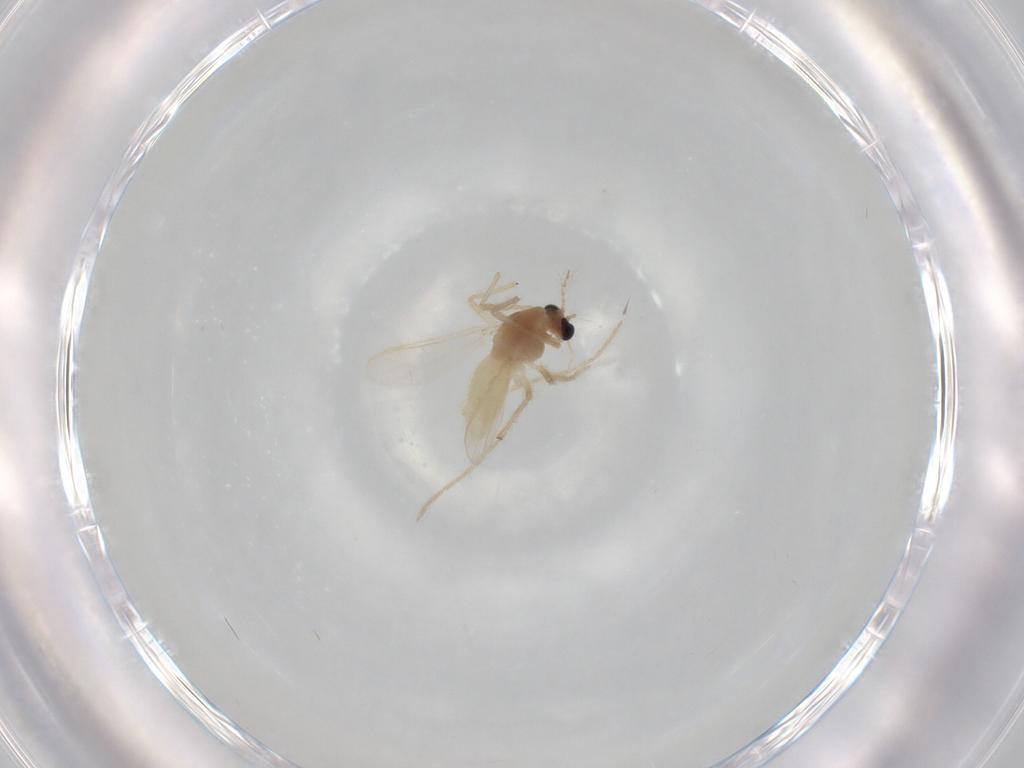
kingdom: Animalia
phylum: Arthropoda
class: Insecta
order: Diptera
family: Chironomidae
